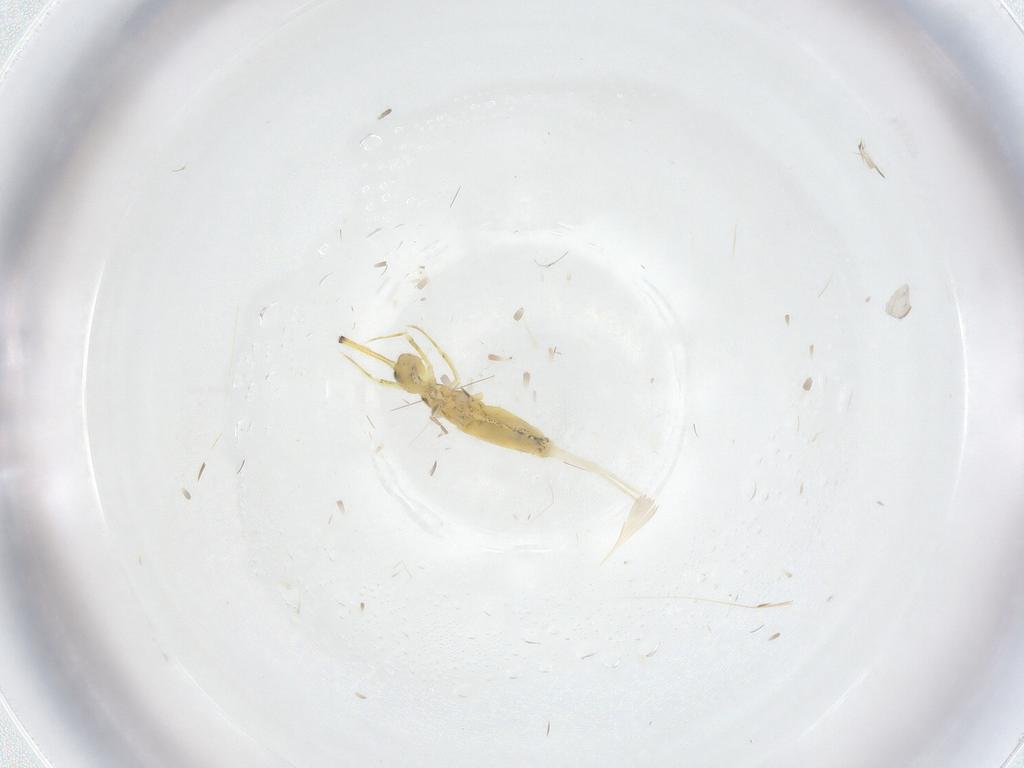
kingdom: Animalia
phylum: Arthropoda
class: Collembola
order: Entomobryomorpha
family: Paronellidae
